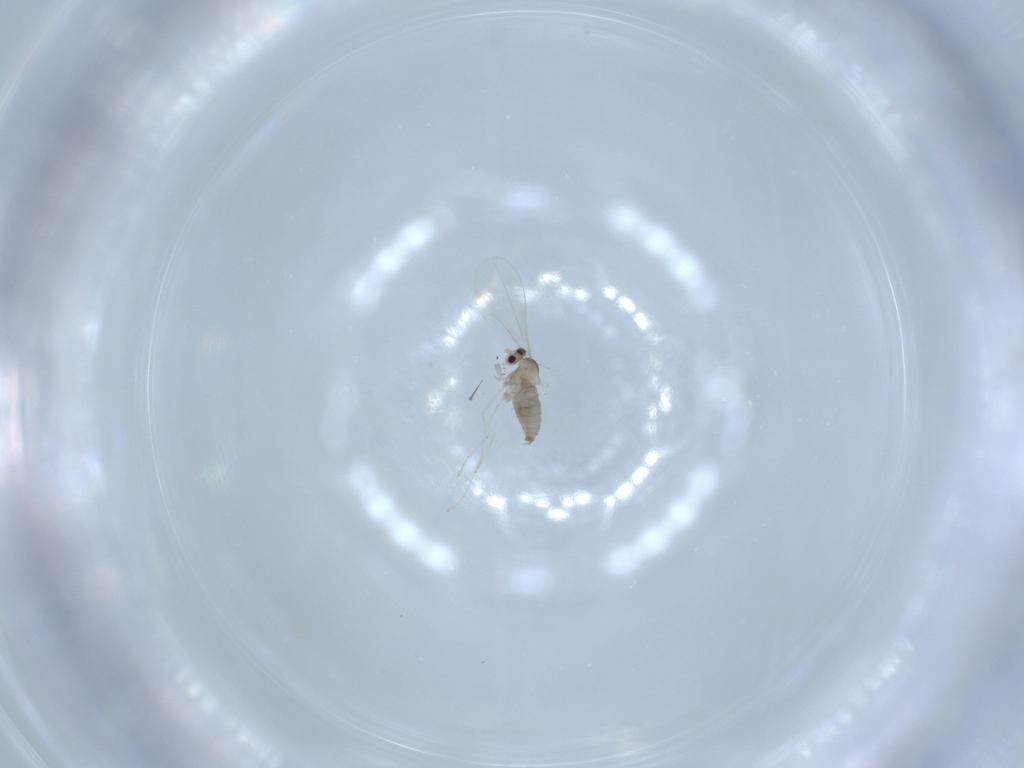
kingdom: Animalia
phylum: Arthropoda
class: Insecta
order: Diptera
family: Cecidomyiidae
